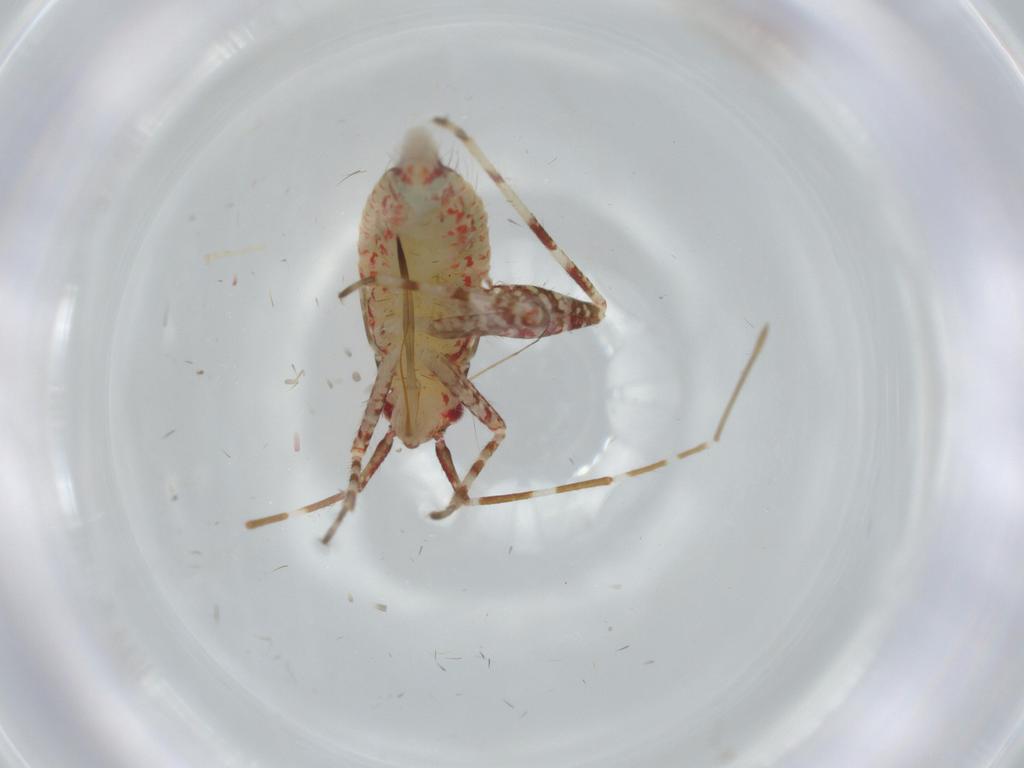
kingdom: Animalia
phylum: Arthropoda
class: Insecta
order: Hemiptera
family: Miridae
